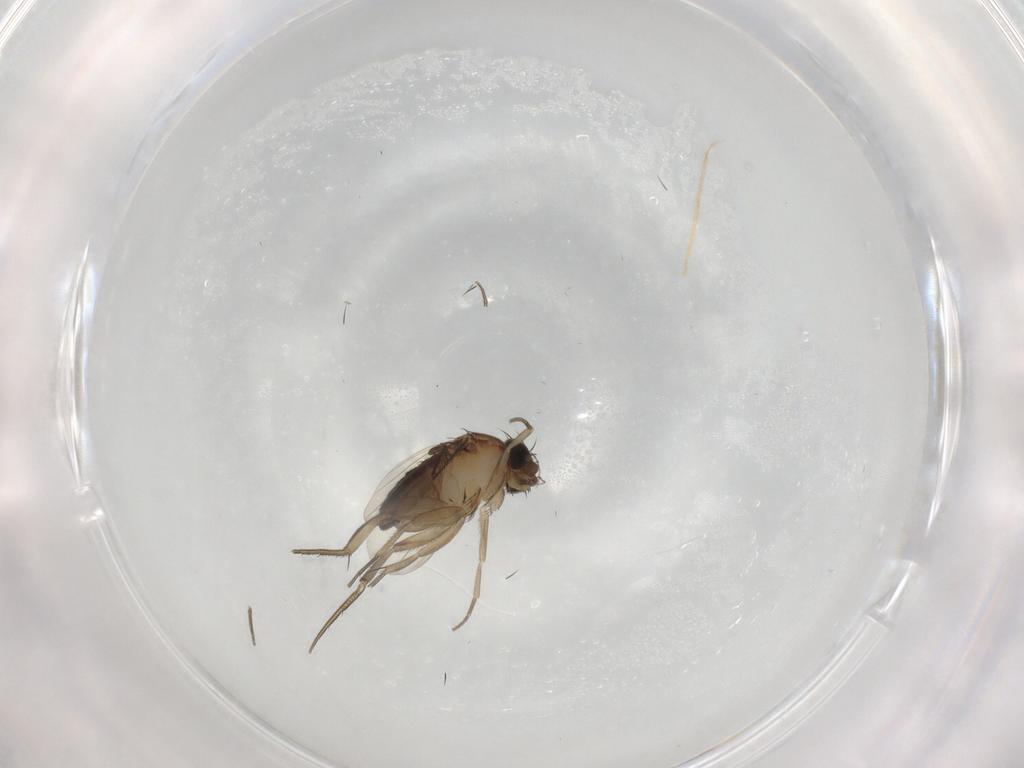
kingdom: Animalia
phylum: Arthropoda
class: Insecta
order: Diptera
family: Phoridae
